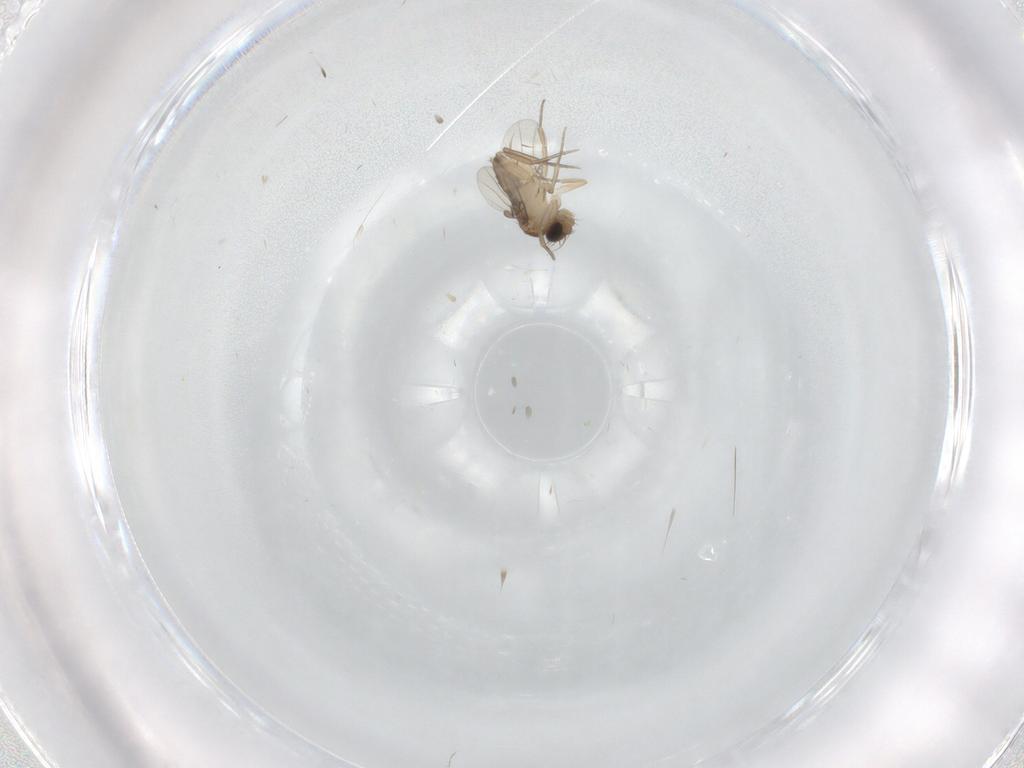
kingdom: Animalia
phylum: Arthropoda
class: Insecta
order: Diptera
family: Phoridae
